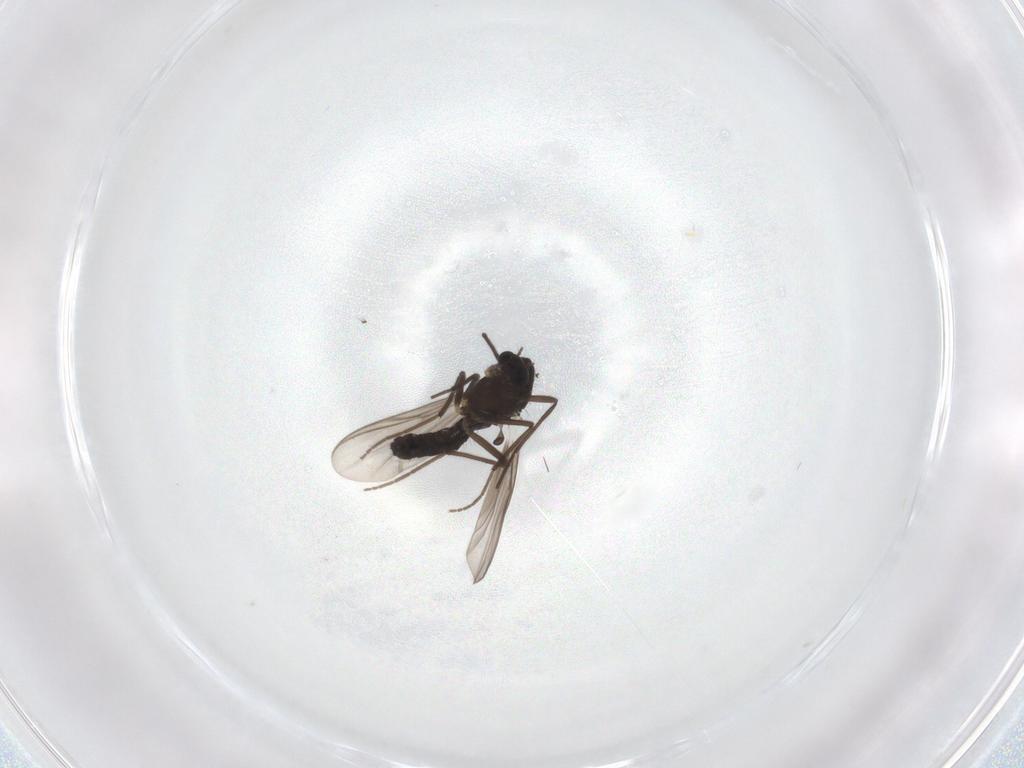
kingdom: Animalia
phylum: Arthropoda
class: Insecta
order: Diptera
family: Chironomidae
